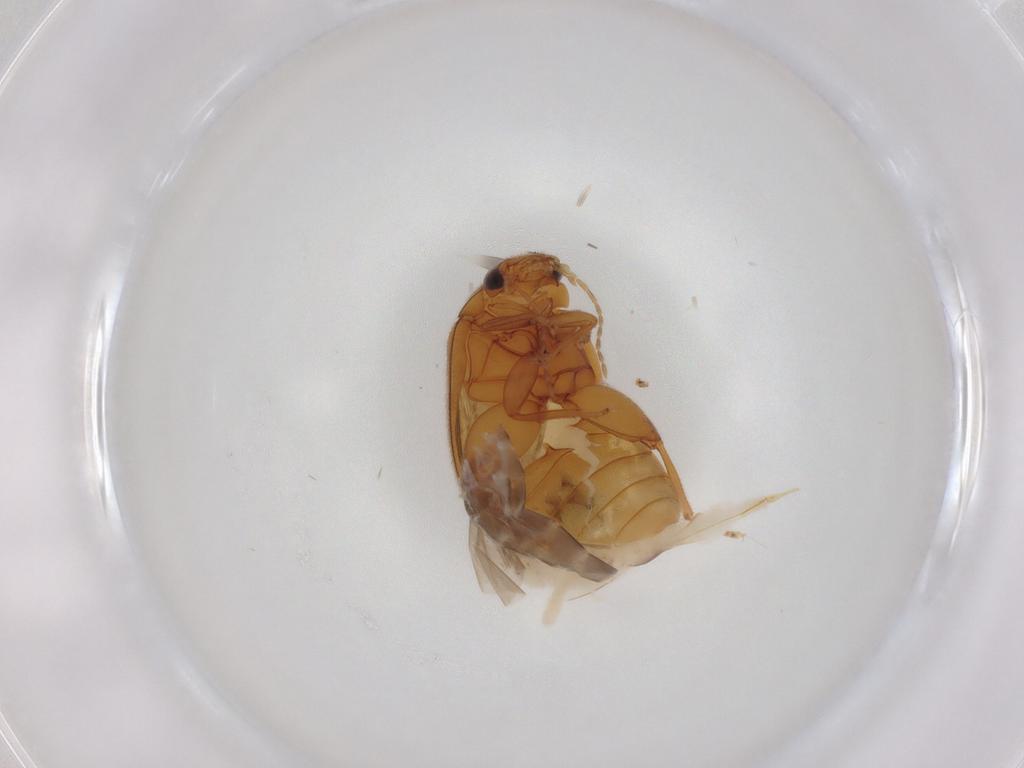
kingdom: Animalia
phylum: Arthropoda
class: Insecta
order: Coleoptera
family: Scirtidae
